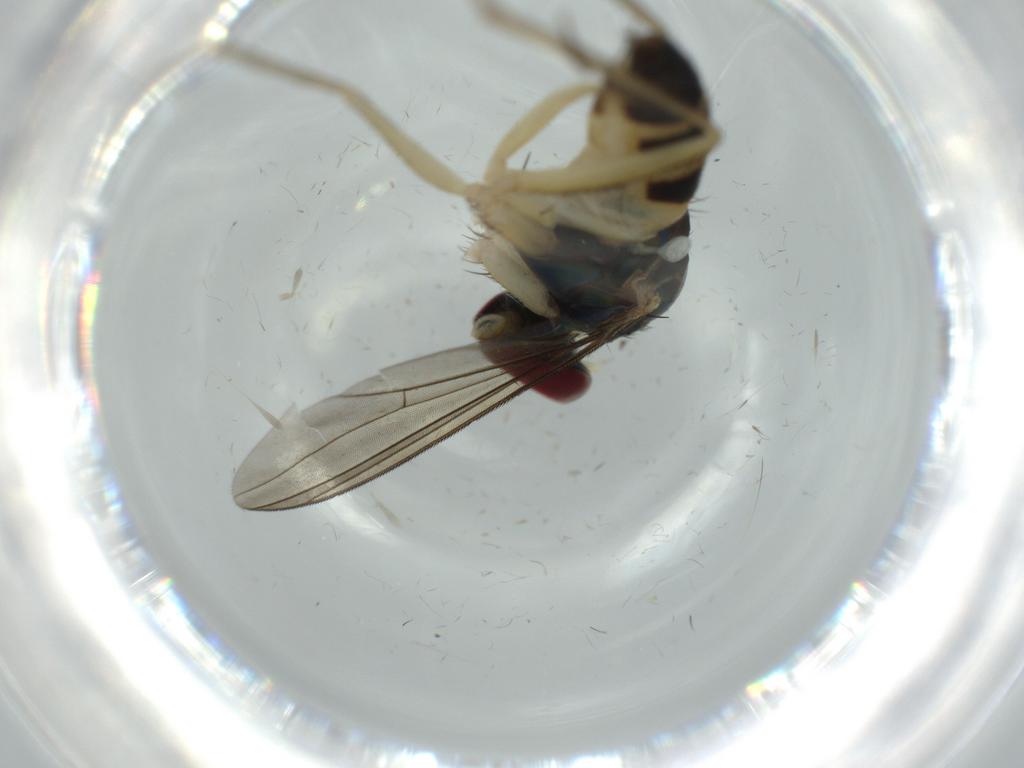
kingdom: Animalia
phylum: Arthropoda
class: Insecta
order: Diptera
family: Dolichopodidae
